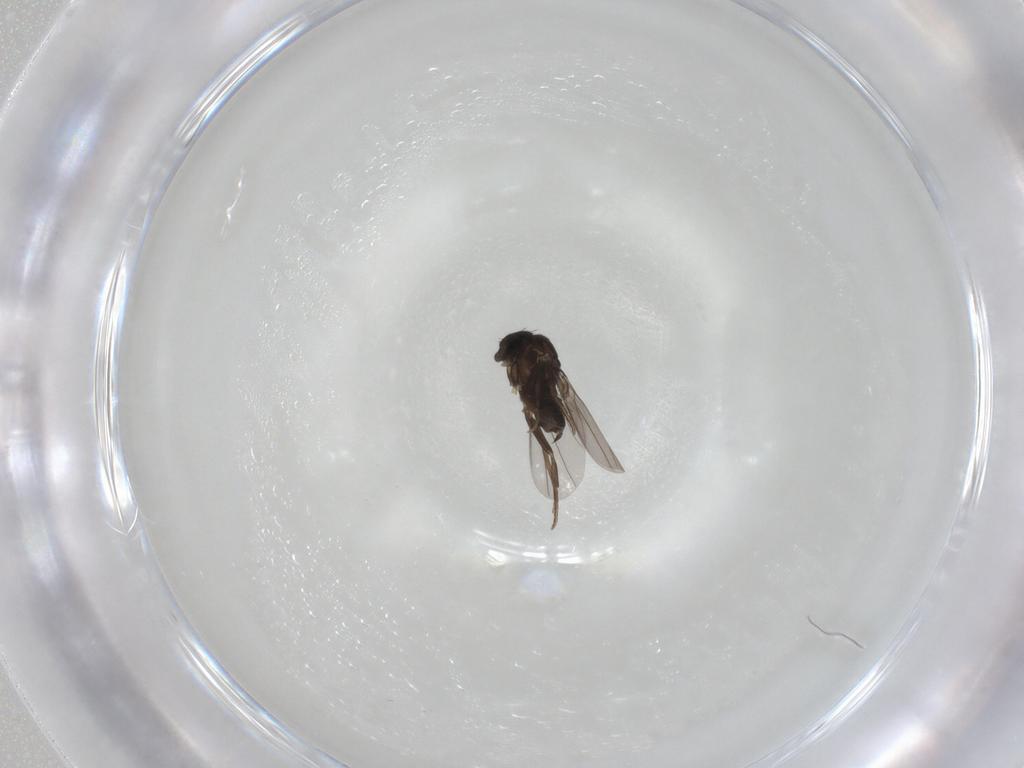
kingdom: Animalia
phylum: Arthropoda
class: Insecta
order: Diptera
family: Phoridae
